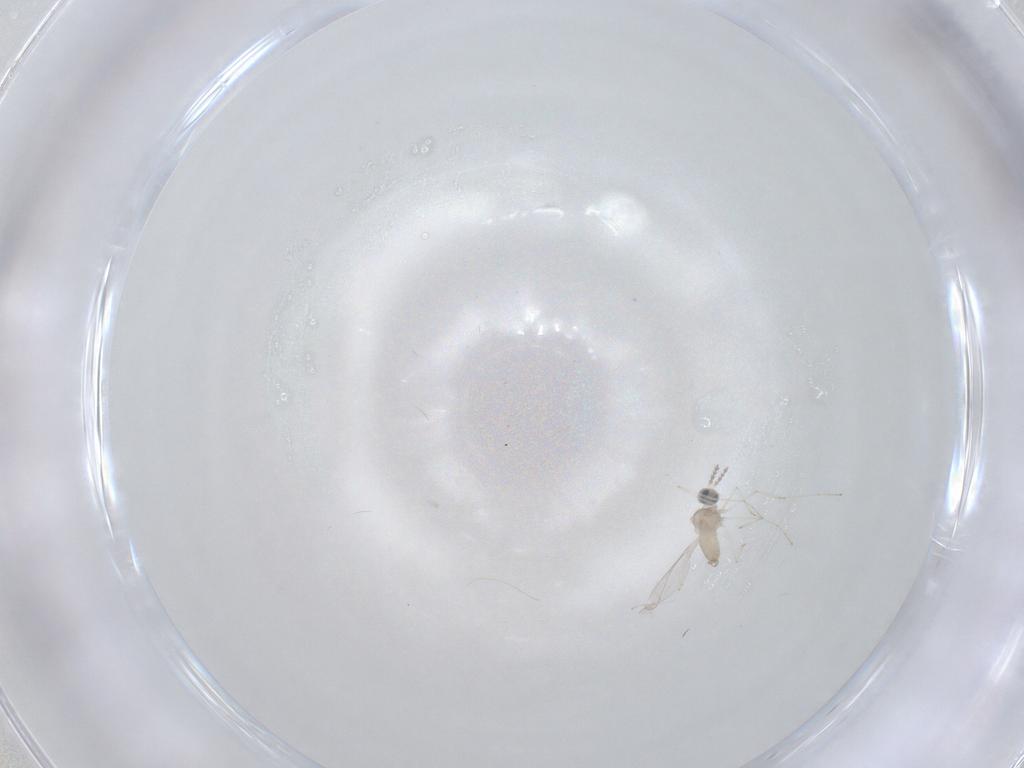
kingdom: Animalia
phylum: Arthropoda
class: Insecta
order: Diptera
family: Cecidomyiidae
